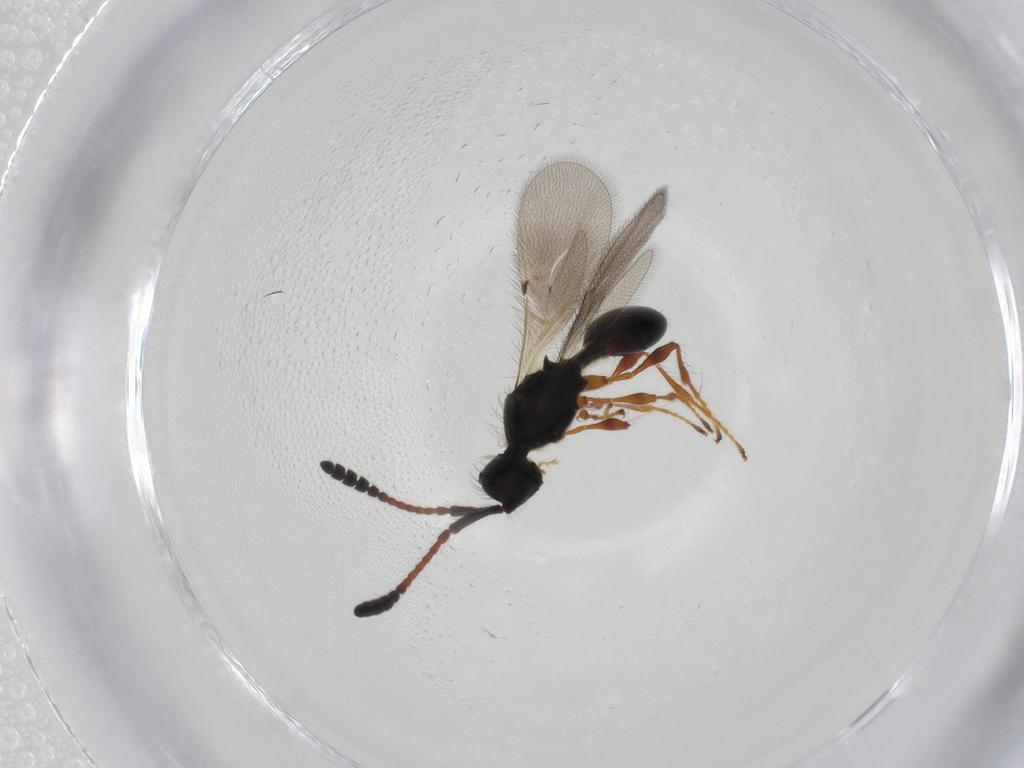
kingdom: Animalia
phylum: Arthropoda
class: Insecta
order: Hymenoptera
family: Diapriidae
